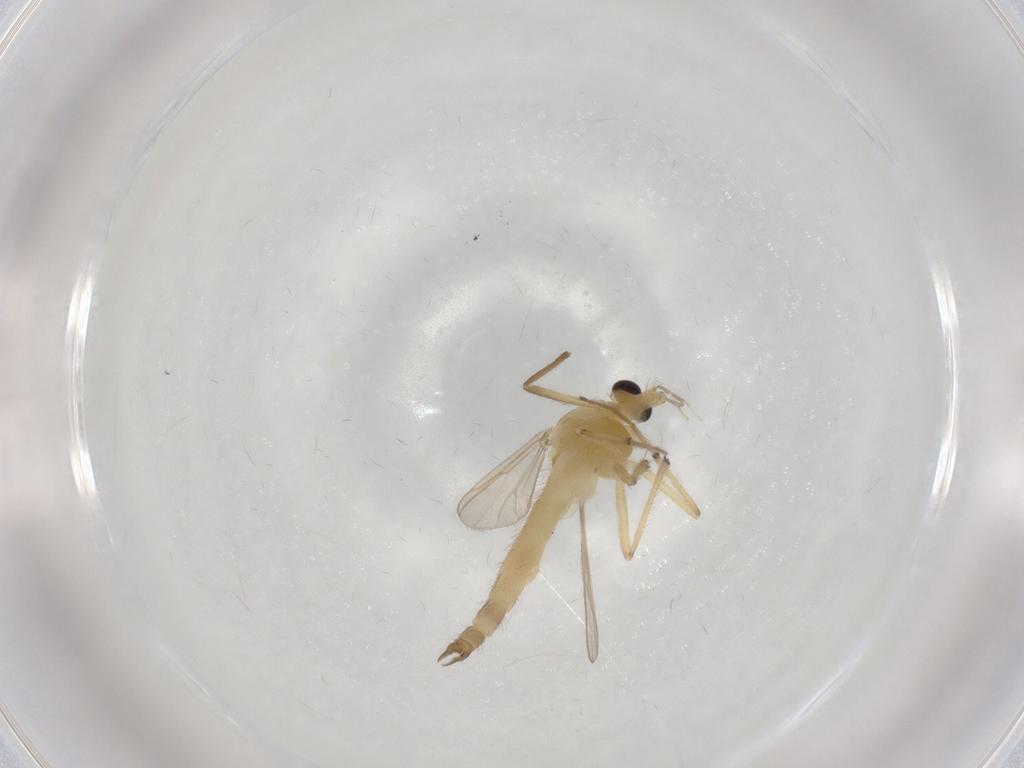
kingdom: Animalia
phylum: Arthropoda
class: Insecta
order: Diptera
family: Chironomidae
